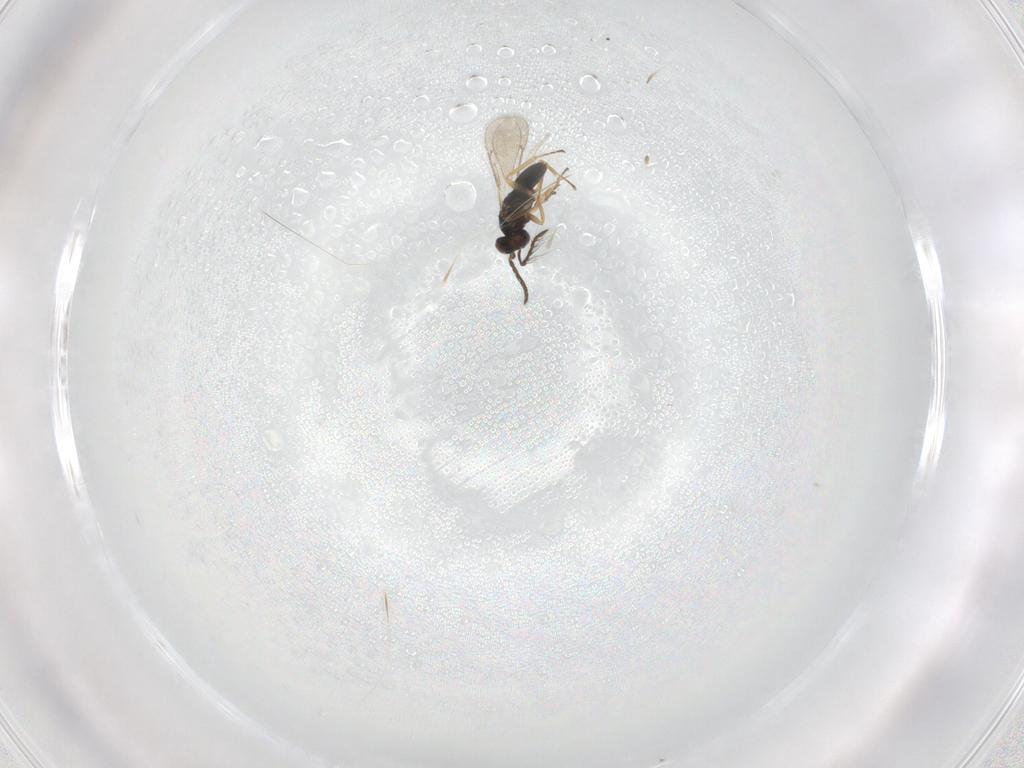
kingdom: Animalia
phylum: Arthropoda
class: Insecta
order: Hymenoptera
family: Eulophidae
